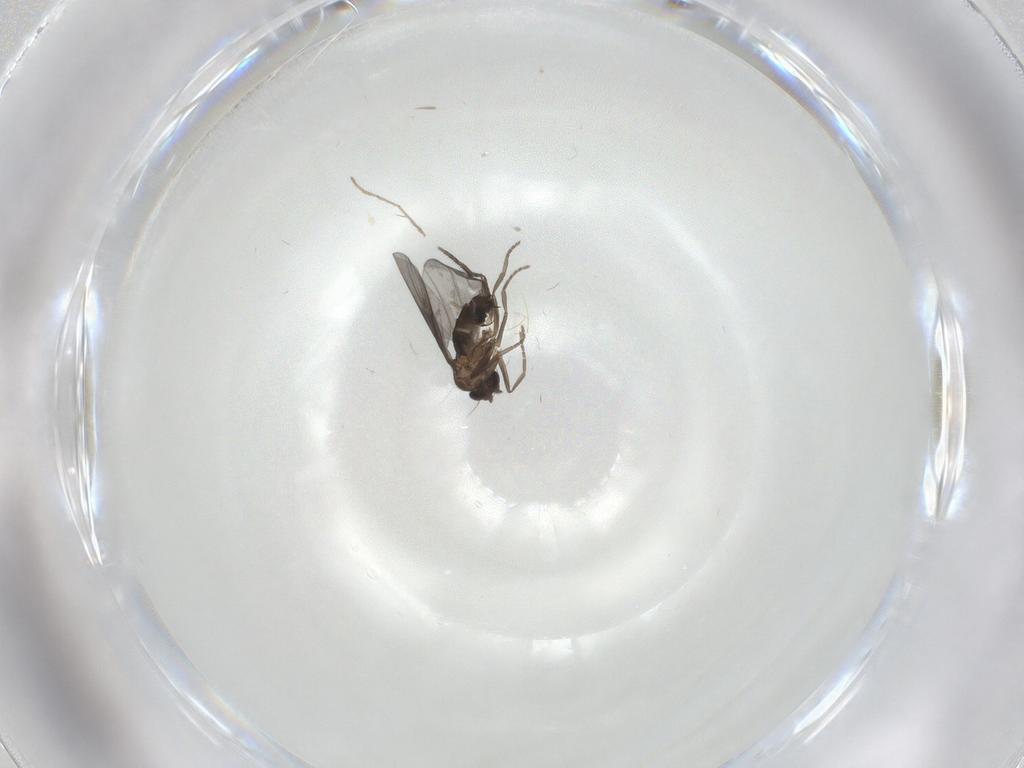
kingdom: Animalia
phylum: Arthropoda
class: Insecta
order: Diptera
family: Chironomidae
